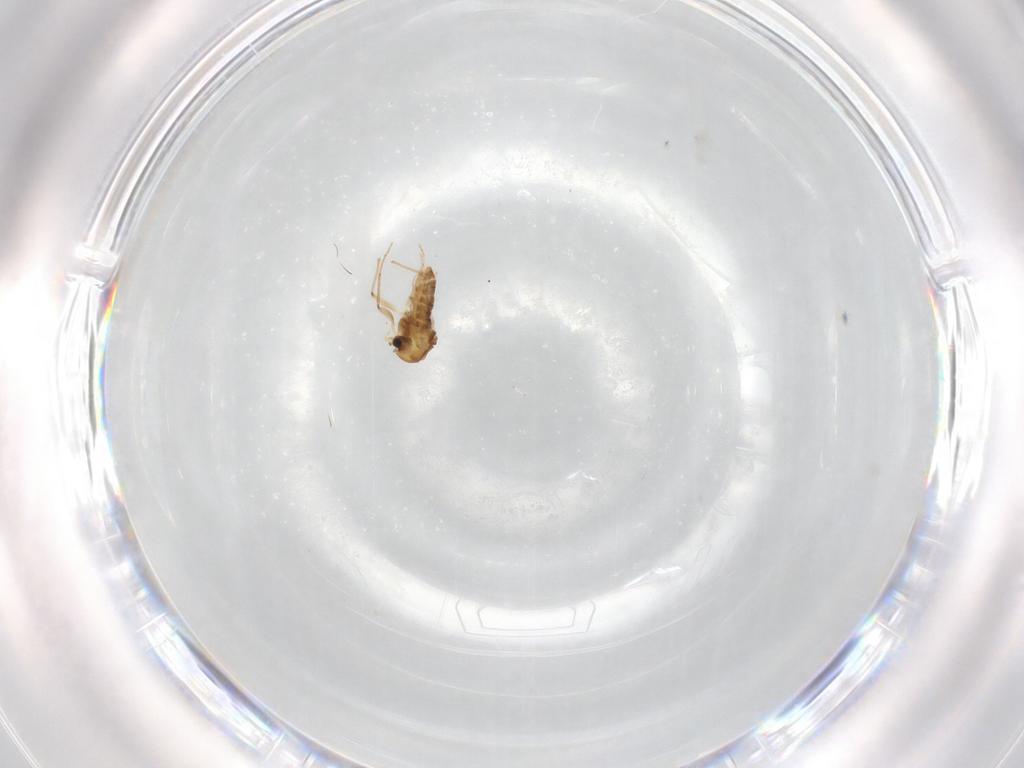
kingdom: Animalia
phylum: Arthropoda
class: Insecta
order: Diptera
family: Chironomidae
